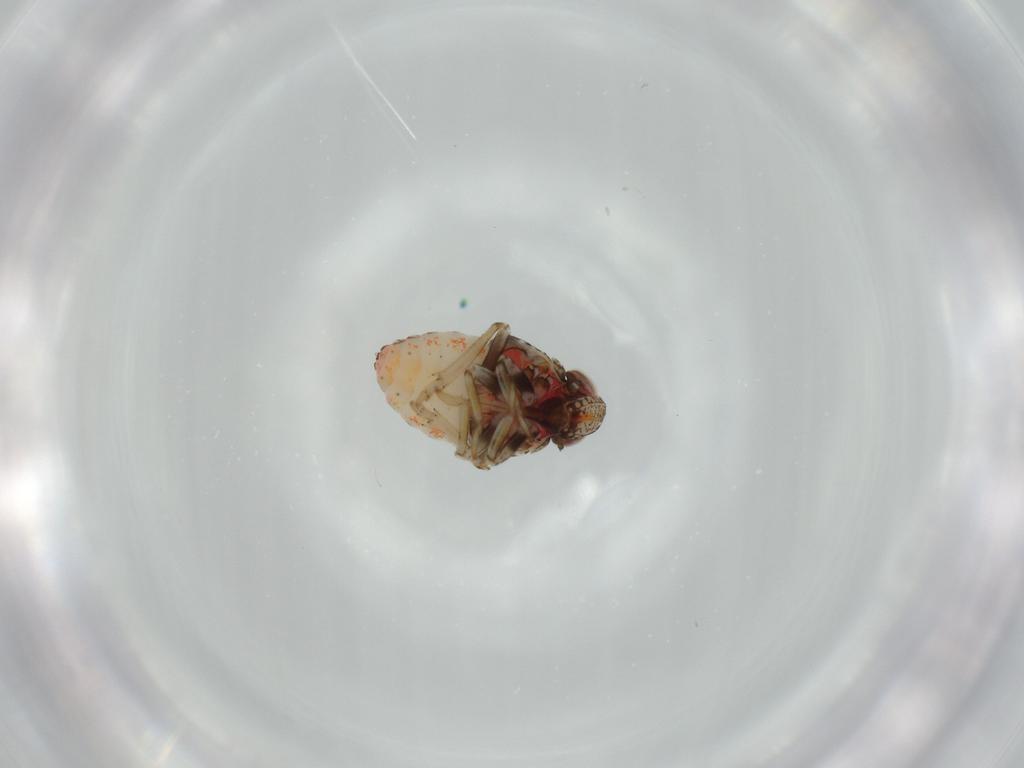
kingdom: Animalia
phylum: Arthropoda
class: Insecta
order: Hemiptera
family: Issidae
